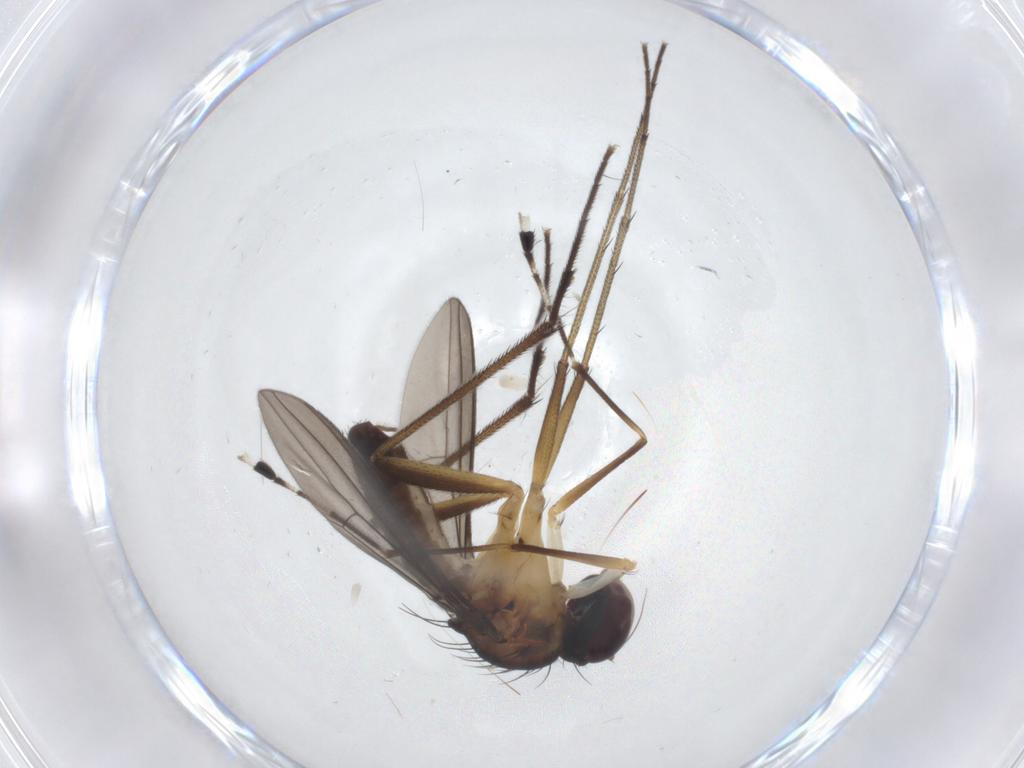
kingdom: Animalia
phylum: Arthropoda
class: Insecta
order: Diptera
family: Dolichopodidae
